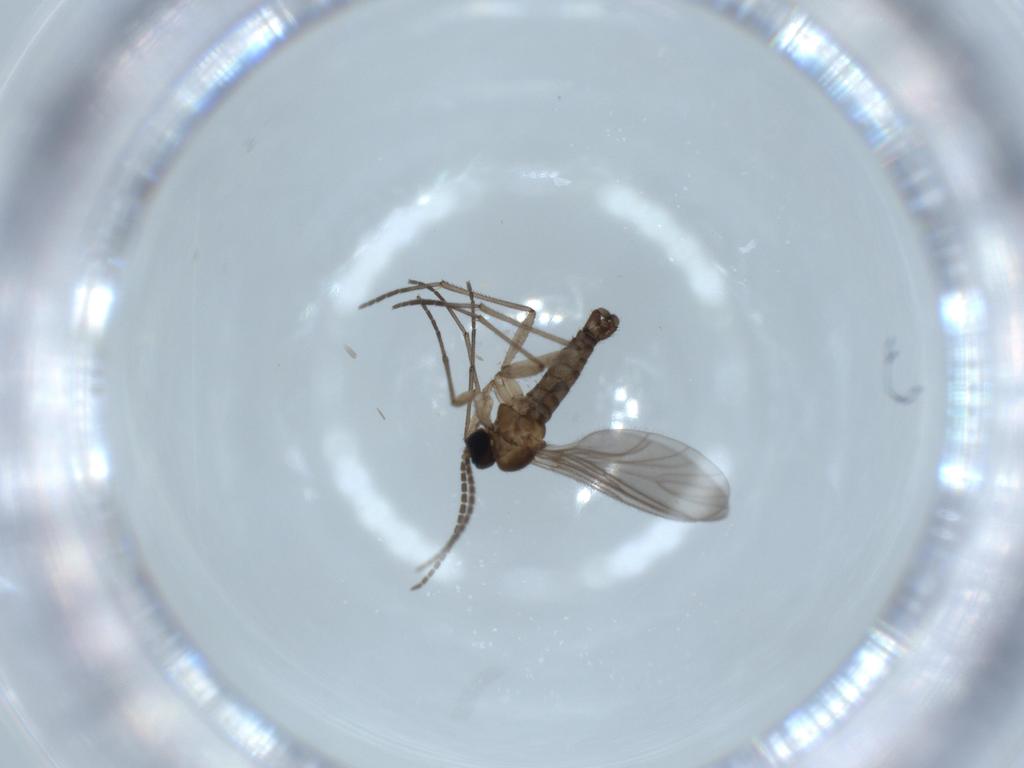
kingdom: Animalia
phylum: Arthropoda
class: Insecta
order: Diptera
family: Sciaridae
